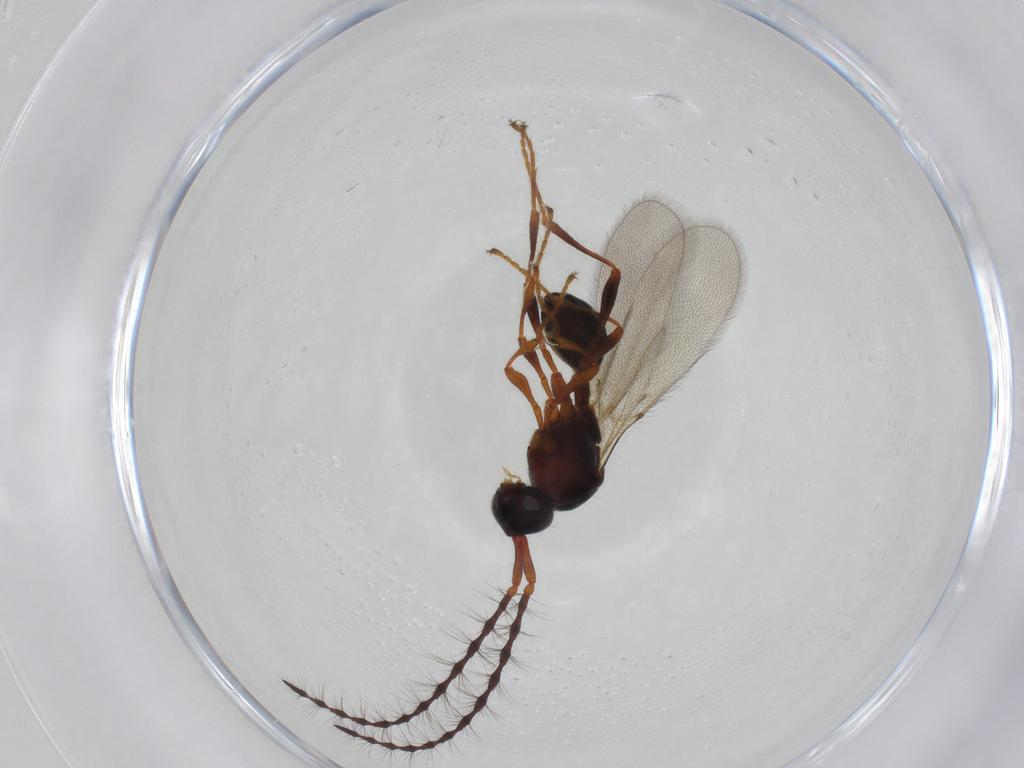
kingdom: Animalia
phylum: Arthropoda
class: Insecta
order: Hymenoptera
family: Diapriidae
